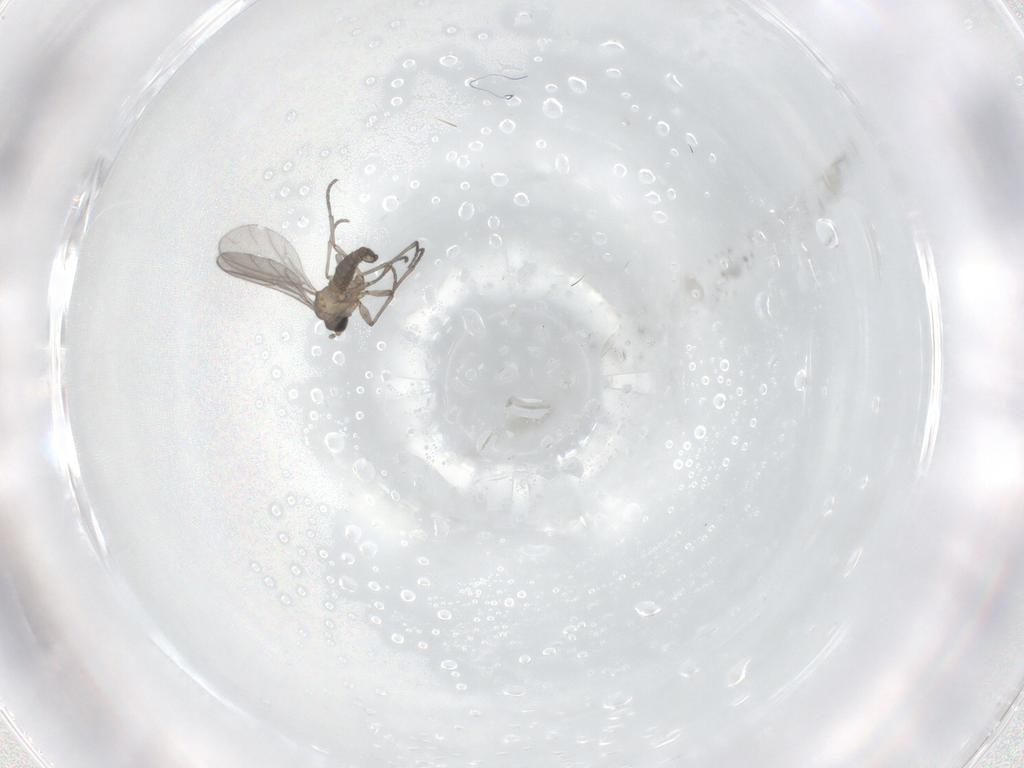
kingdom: Animalia
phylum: Arthropoda
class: Insecta
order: Diptera
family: Sciaridae
